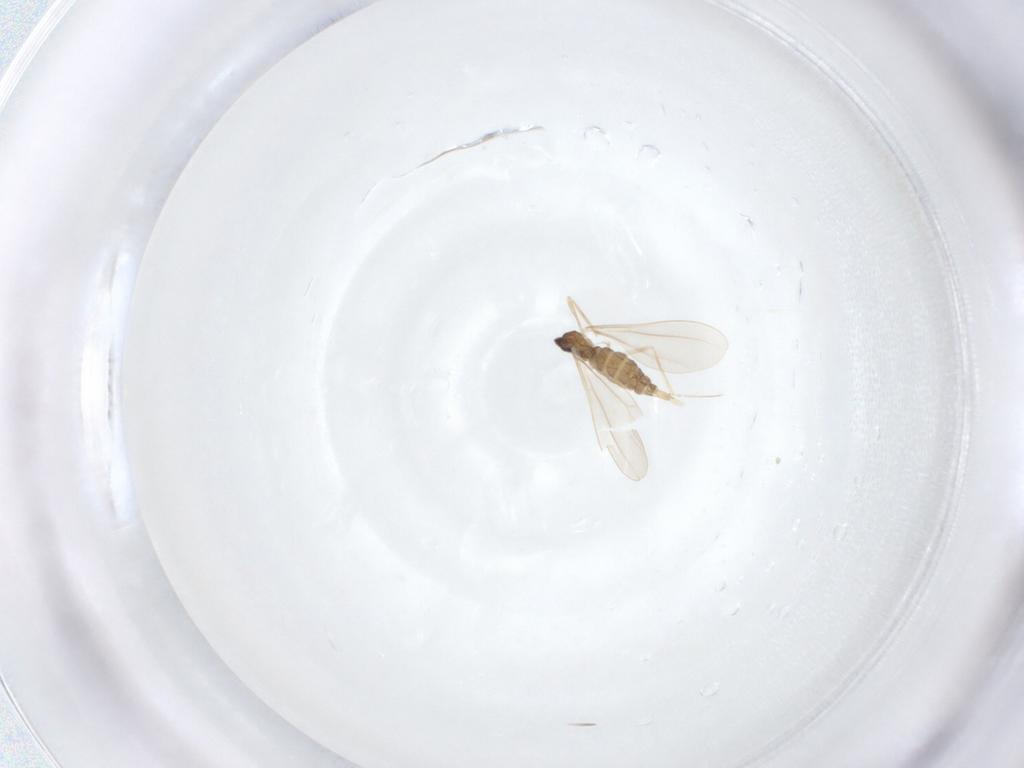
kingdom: Animalia
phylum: Arthropoda
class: Insecta
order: Diptera
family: Cecidomyiidae
